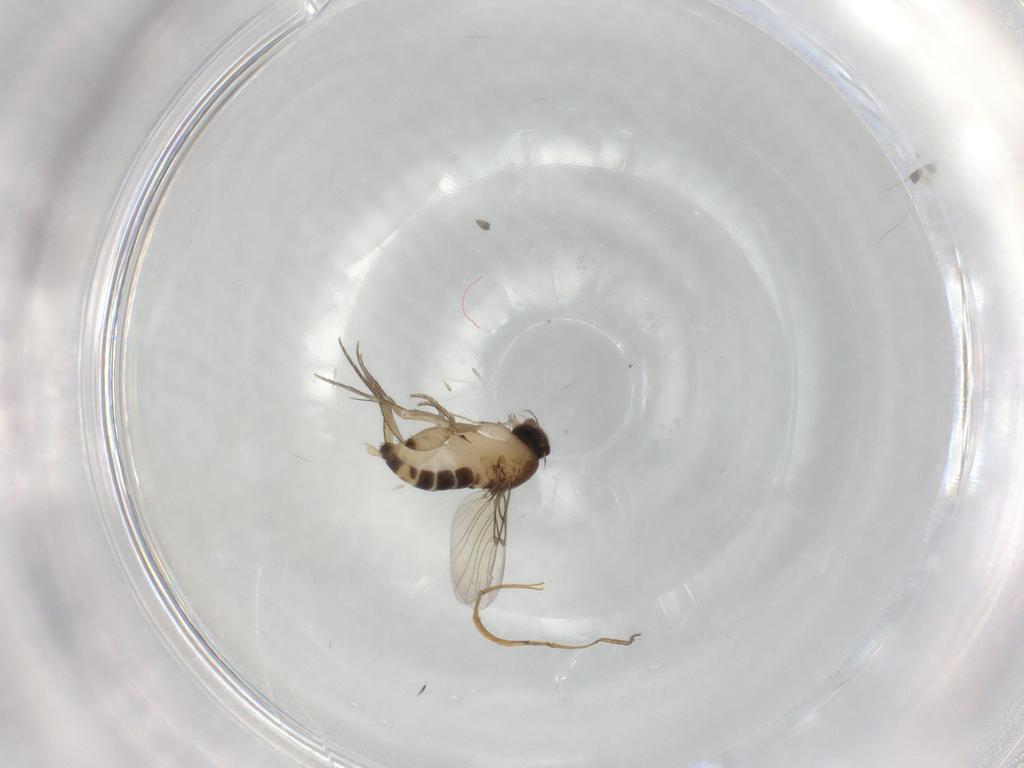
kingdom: Animalia
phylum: Arthropoda
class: Insecta
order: Diptera
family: Phoridae
